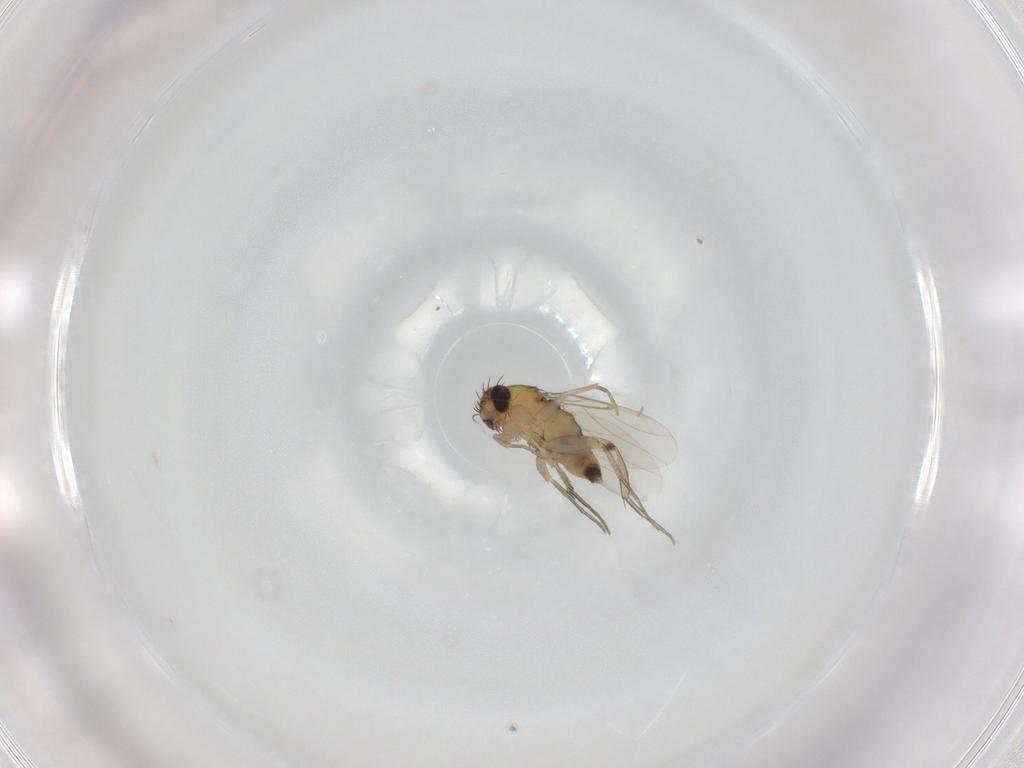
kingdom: Animalia
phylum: Arthropoda
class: Insecta
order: Diptera
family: Phoridae
